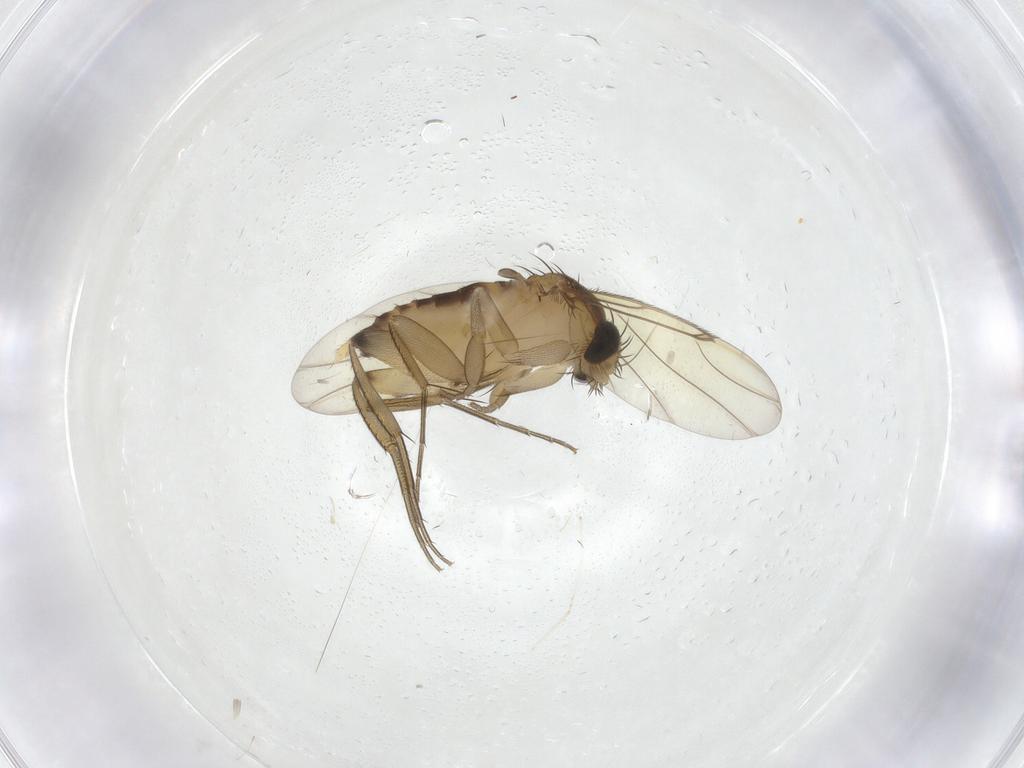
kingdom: Animalia
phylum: Arthropoda
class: Insecta
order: Diptera
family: Phoridae
